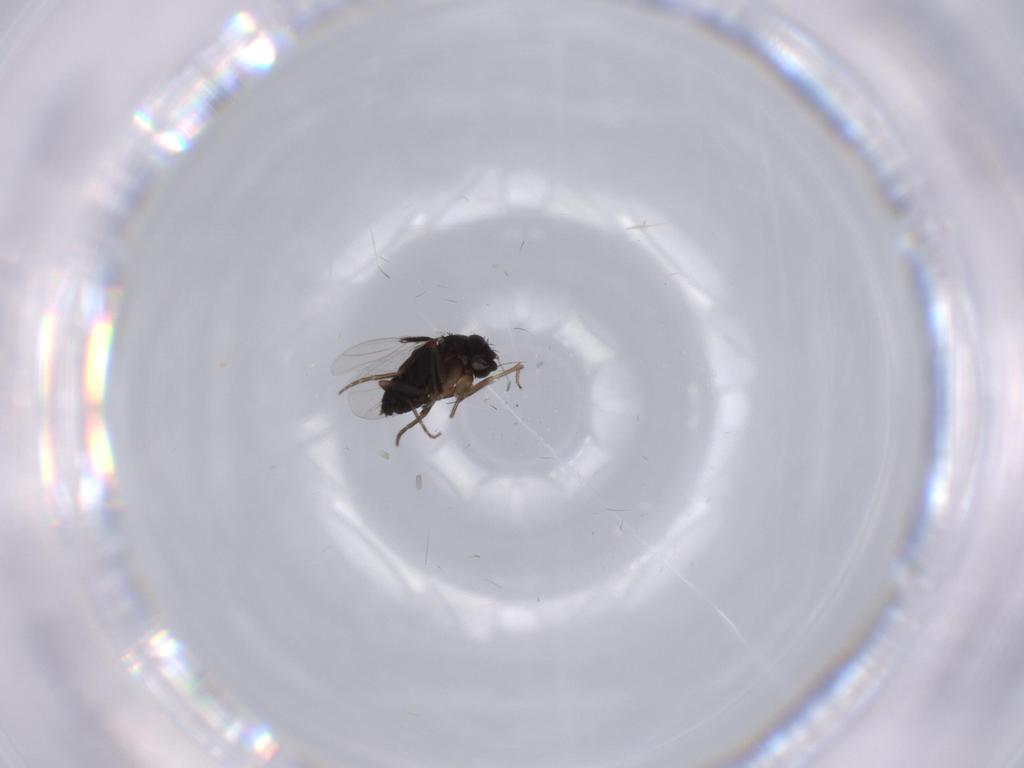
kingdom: Animalia
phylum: Arthropoda
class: Insecta
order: Diptera
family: Phoridae
